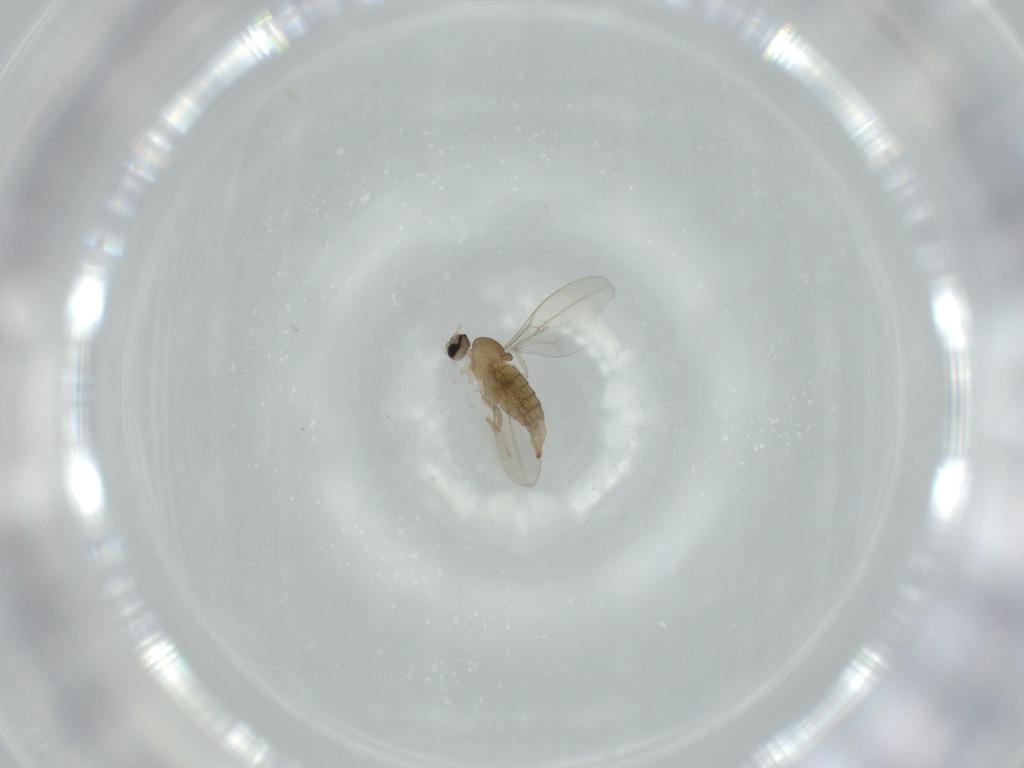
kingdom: Animalia
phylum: Arthropoda
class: Insecta
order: Diptera
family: Cecidomyiidae
